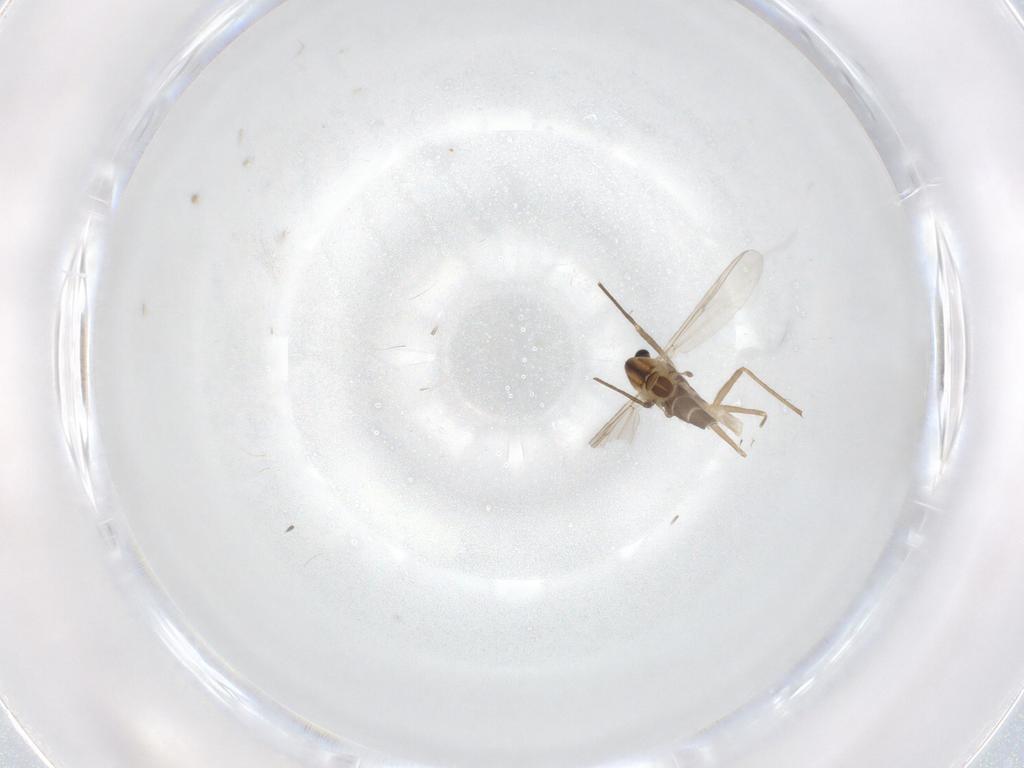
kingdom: Animalia
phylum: Arthropoda
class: Insecta
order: Diptera
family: Chironomidae
